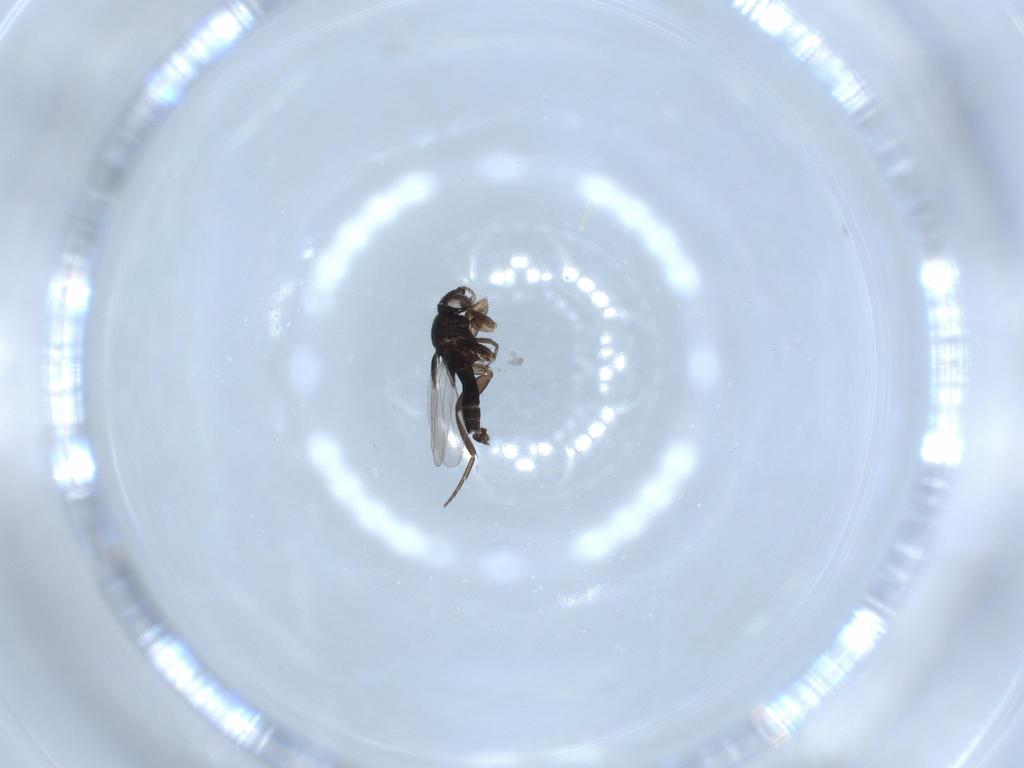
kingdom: Animalia
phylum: Arthropoda
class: Insecta
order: Diptera
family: Phoridae
